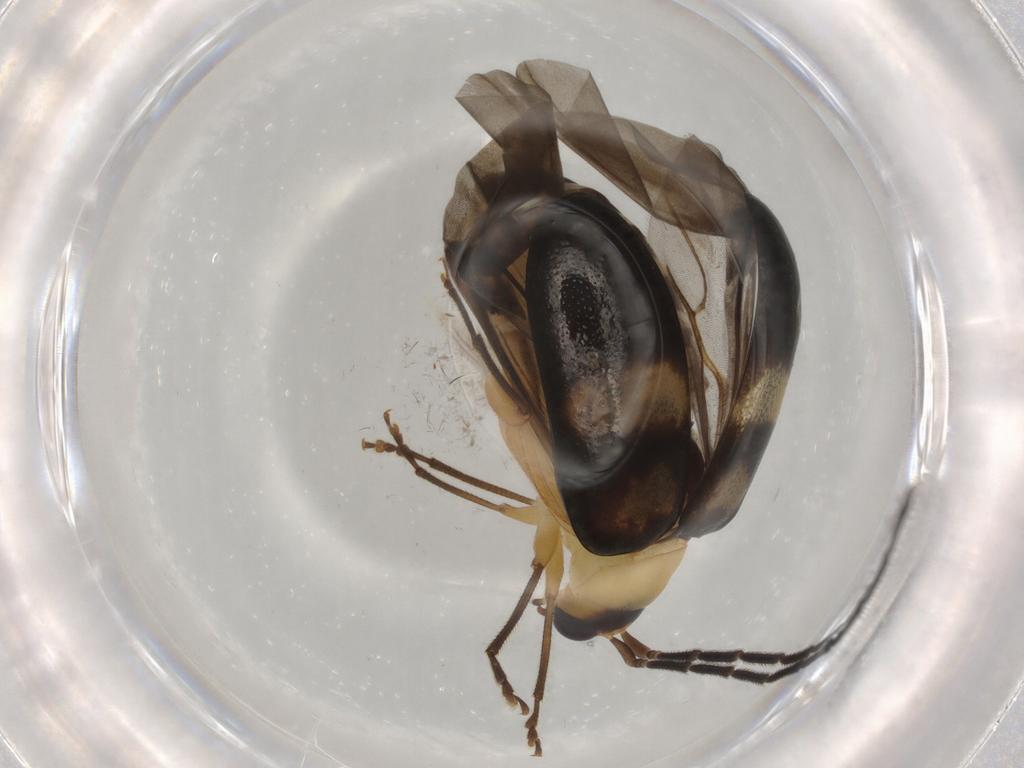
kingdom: Animalia
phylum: Arthropoda
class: Insecta
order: Coleoptera
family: Chrysomelidae
